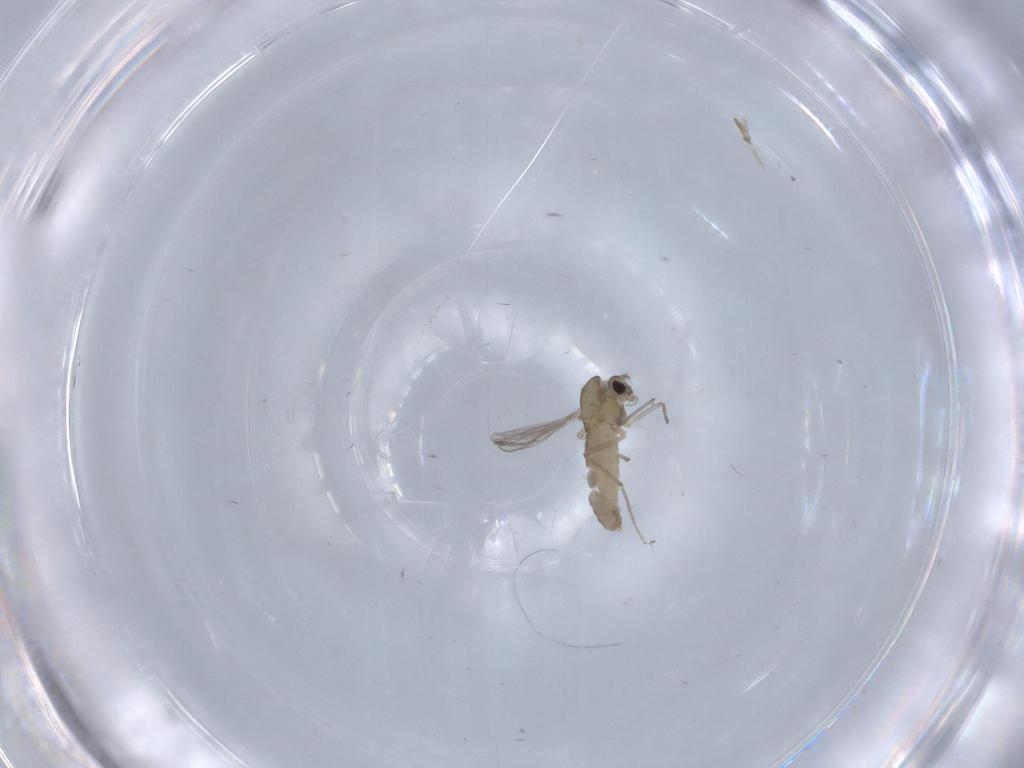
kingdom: Animalia
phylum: Arthropoda
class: Insecta
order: Diptera
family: Chironomidae
